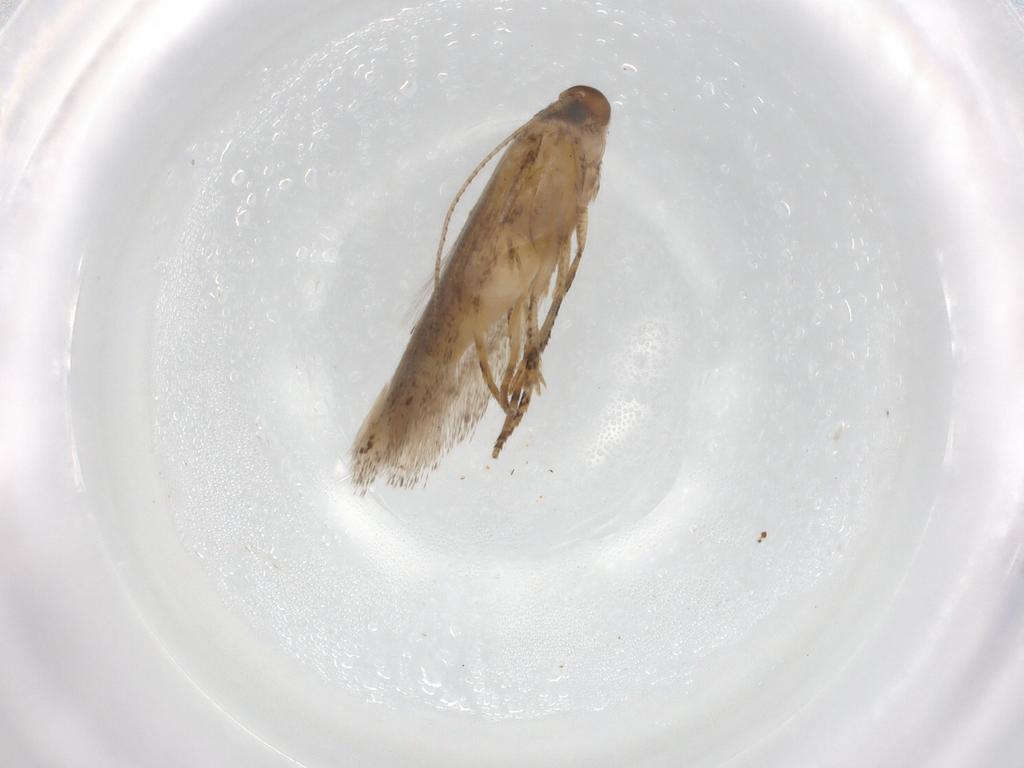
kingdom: Animalia
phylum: Arthropoda
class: Insecta
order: Lepidoptera
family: Gelechiidae
